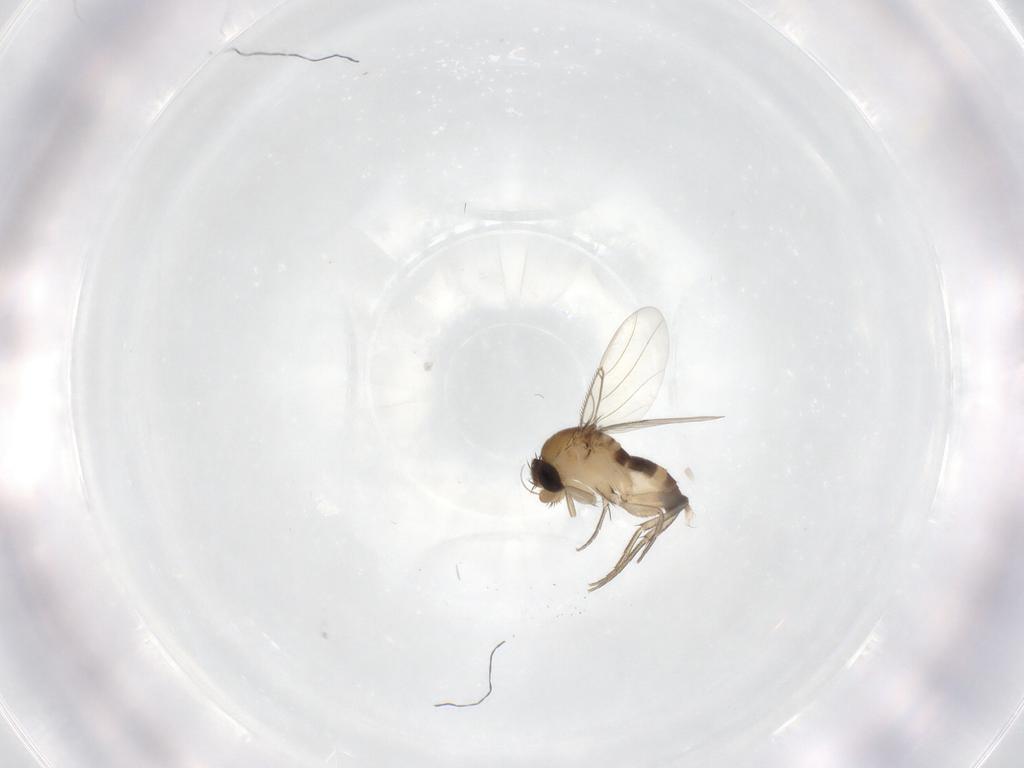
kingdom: Animalia
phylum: Arthropoda
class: Insecta
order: Diptera
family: Phoridae
